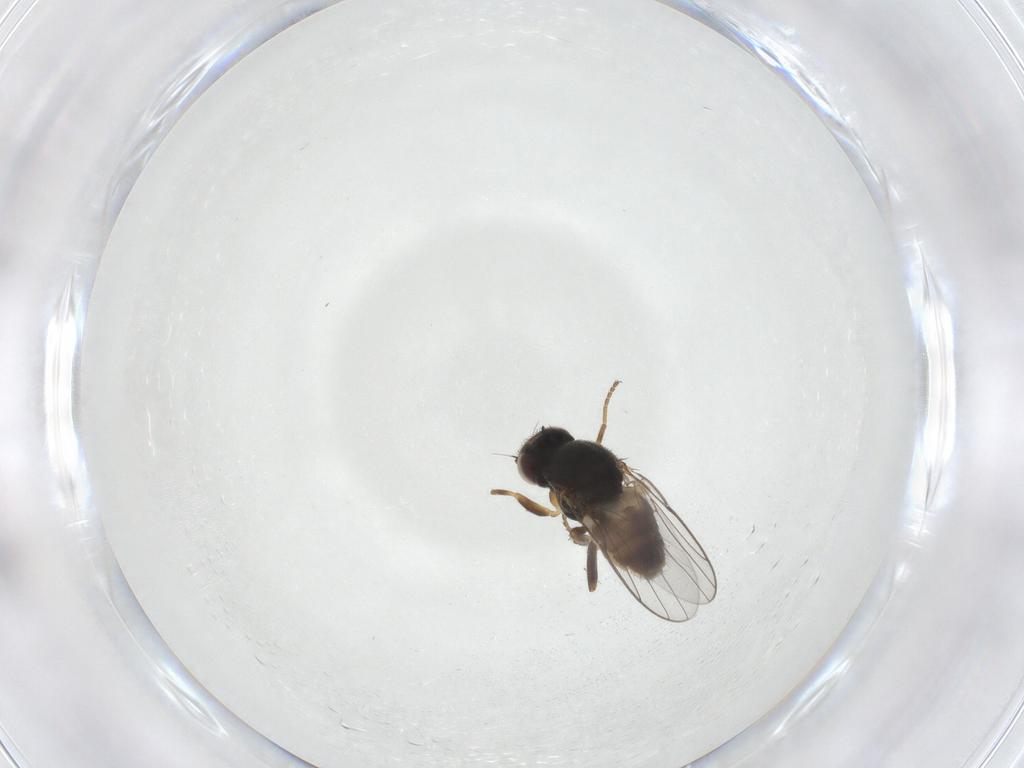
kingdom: Animalia
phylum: Arthropoda
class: Insecta
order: Diptera
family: Chloropidae
